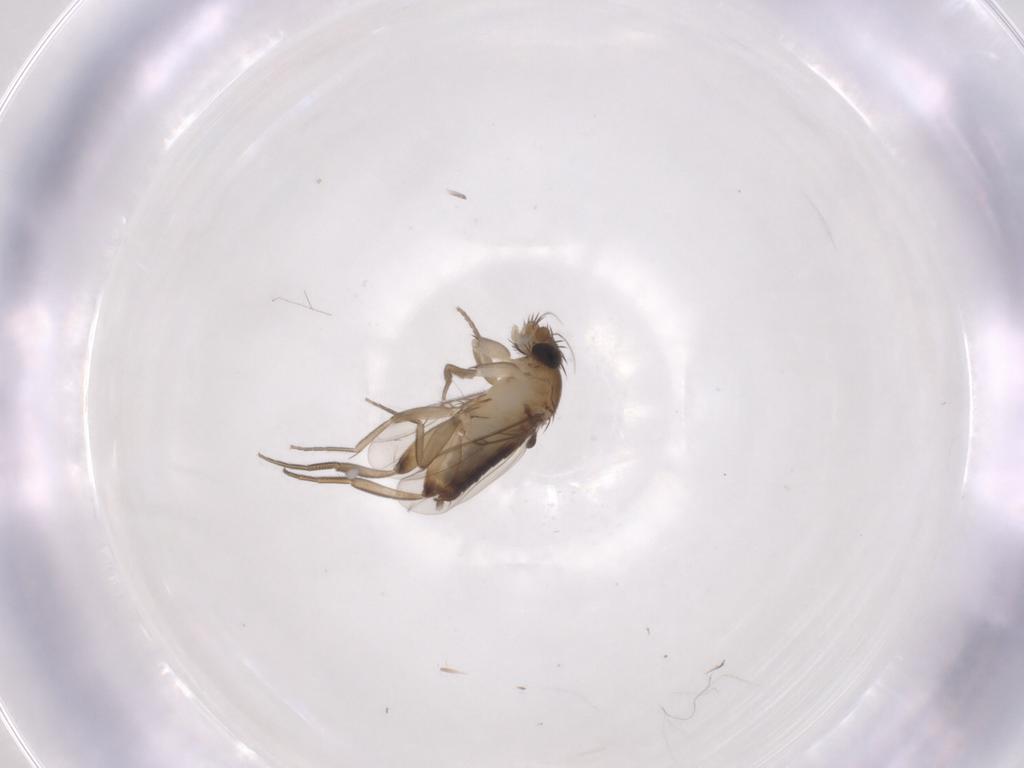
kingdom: Animalia
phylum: Arthropoda
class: Insecta
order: Diptera
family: Phoridae
